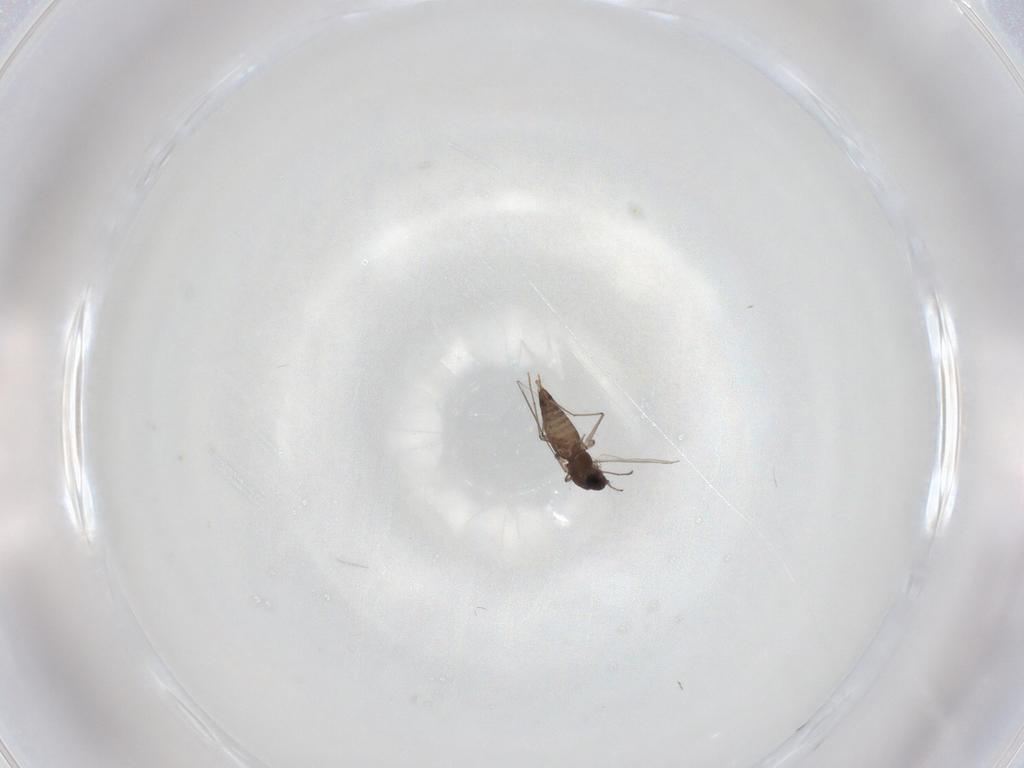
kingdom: Animalia
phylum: Arthropoda
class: Insecta
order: Diptera
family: Chironomidae
